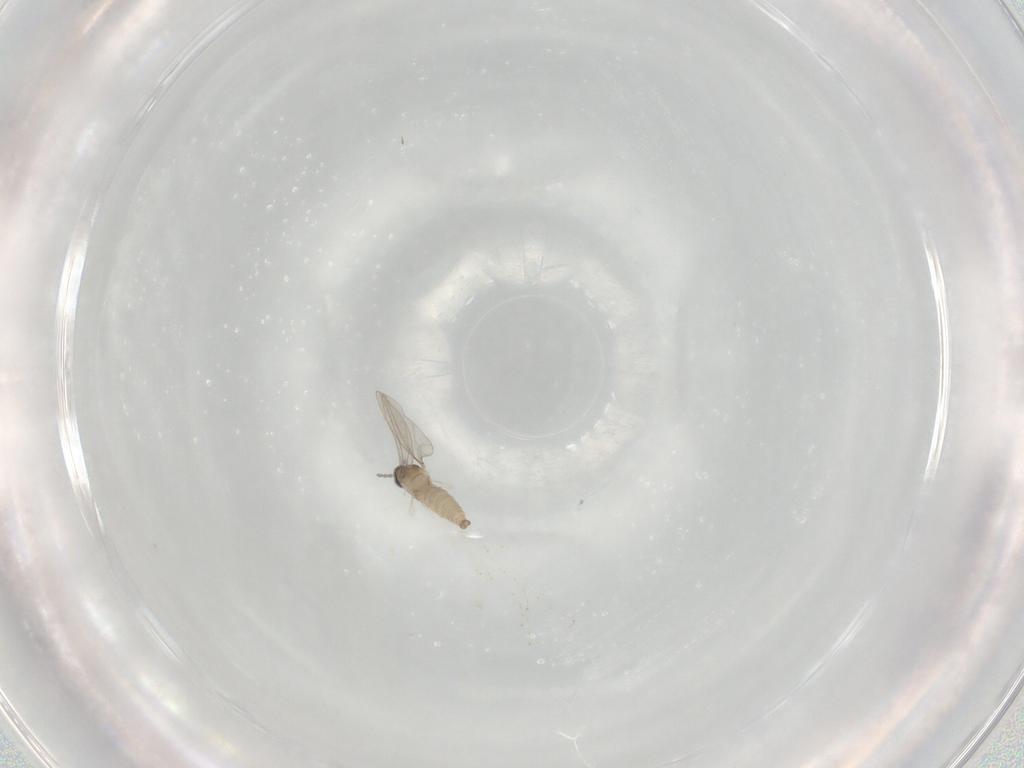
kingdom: Animalia
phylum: Arthropoda
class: Insecta
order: Diptera
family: Cecidomyiidae
